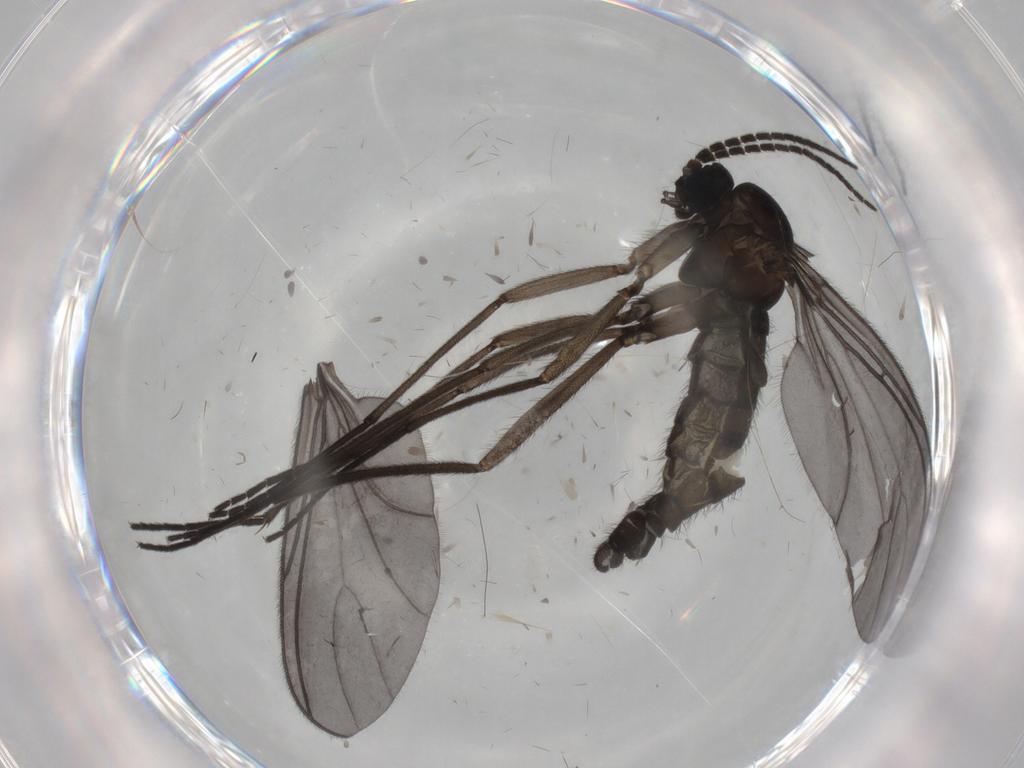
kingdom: Animalia
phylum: Arthropoda
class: Insecta
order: Diptera
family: Sciaridae
